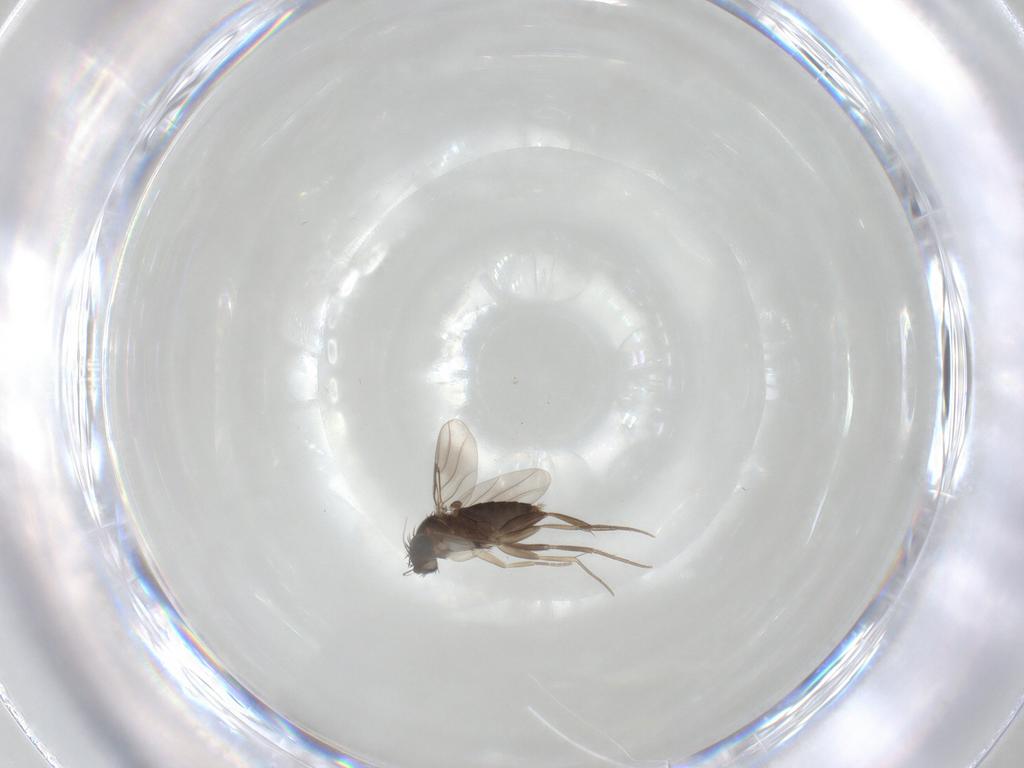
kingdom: Animalia
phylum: Arthropoda
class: Insecta
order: Diptera
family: Phoridae
